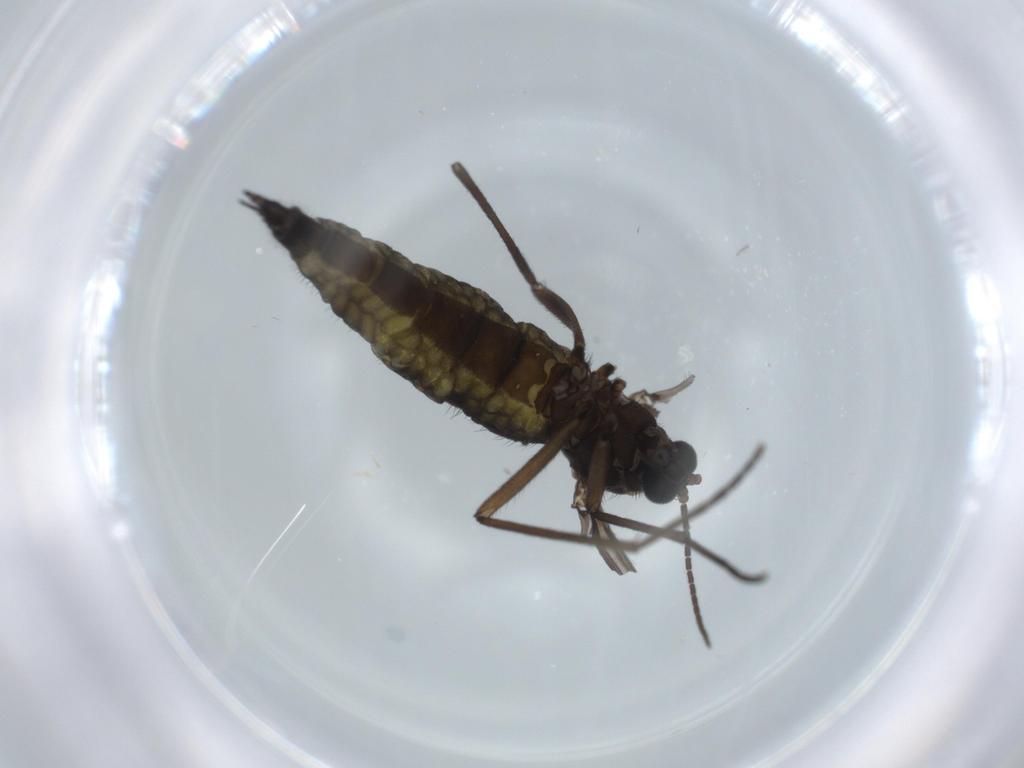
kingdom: Animalia
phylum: Arthropoda
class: Insecta
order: Diptera
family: Sciaridae
